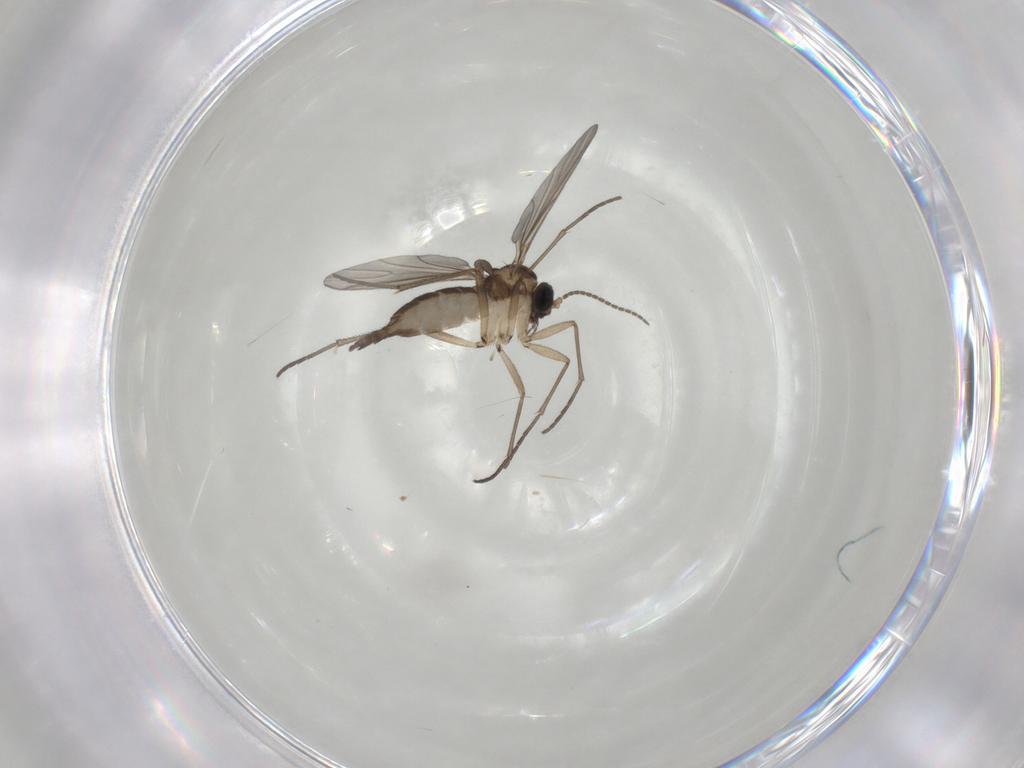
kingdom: Animalia
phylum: Arthropoda
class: Insecta
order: Diptera
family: Sciaridae
